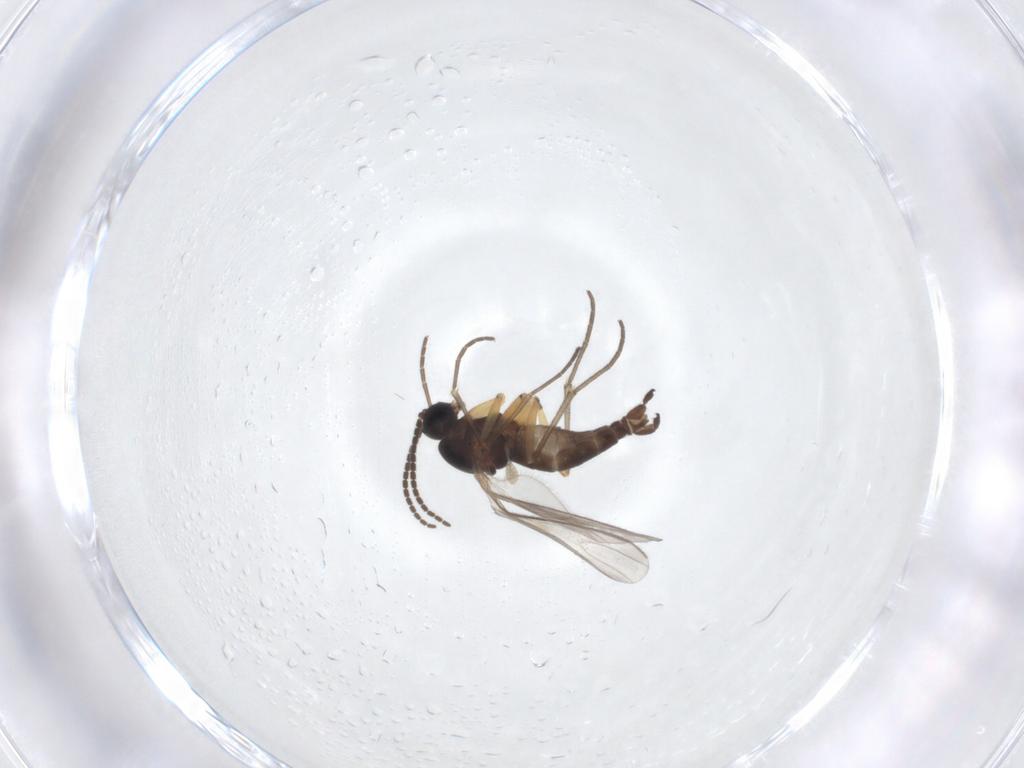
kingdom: Animalia
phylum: Arthropoda
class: Insecta
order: Diptera
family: Sciaridae
